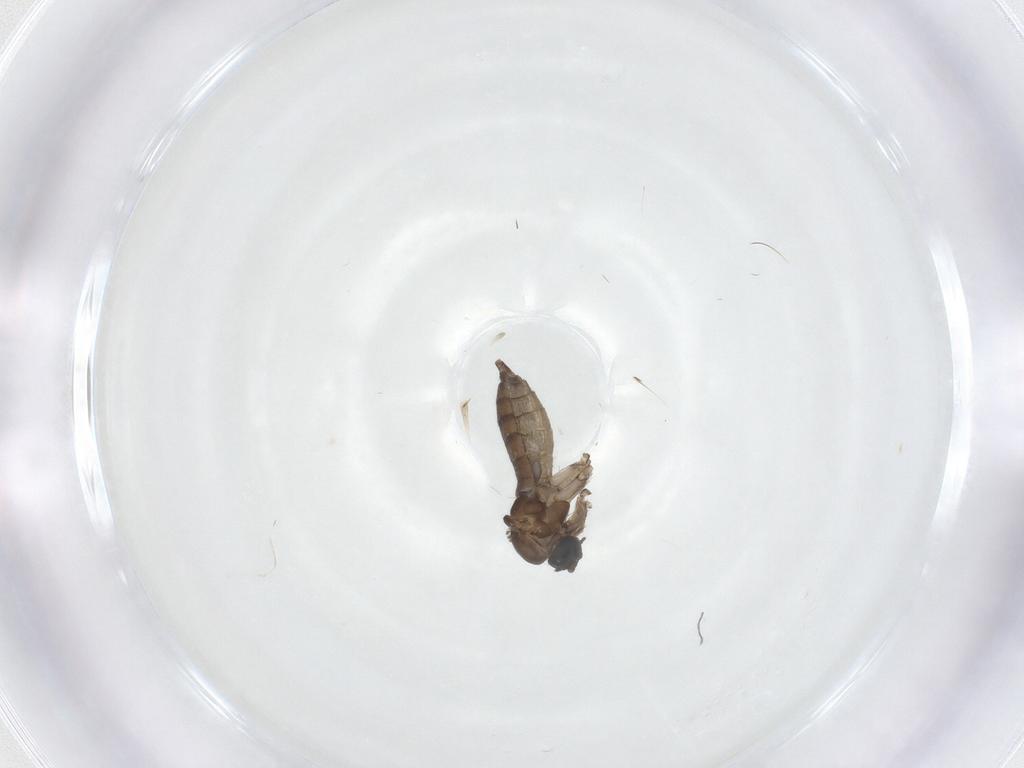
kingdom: Animalia
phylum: Arthropoda
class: Insecta
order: Diptera
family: Sciaridae
